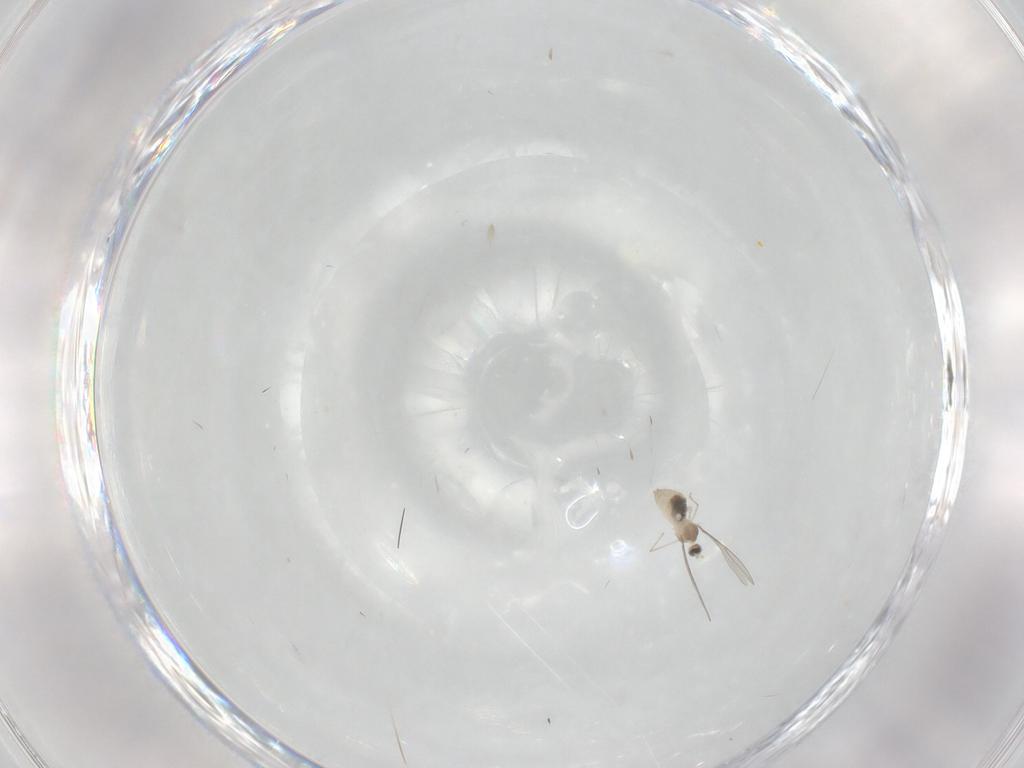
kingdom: Animalia
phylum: Arthropoda
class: Insecta
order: Diptera
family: Cecidomyiidae
